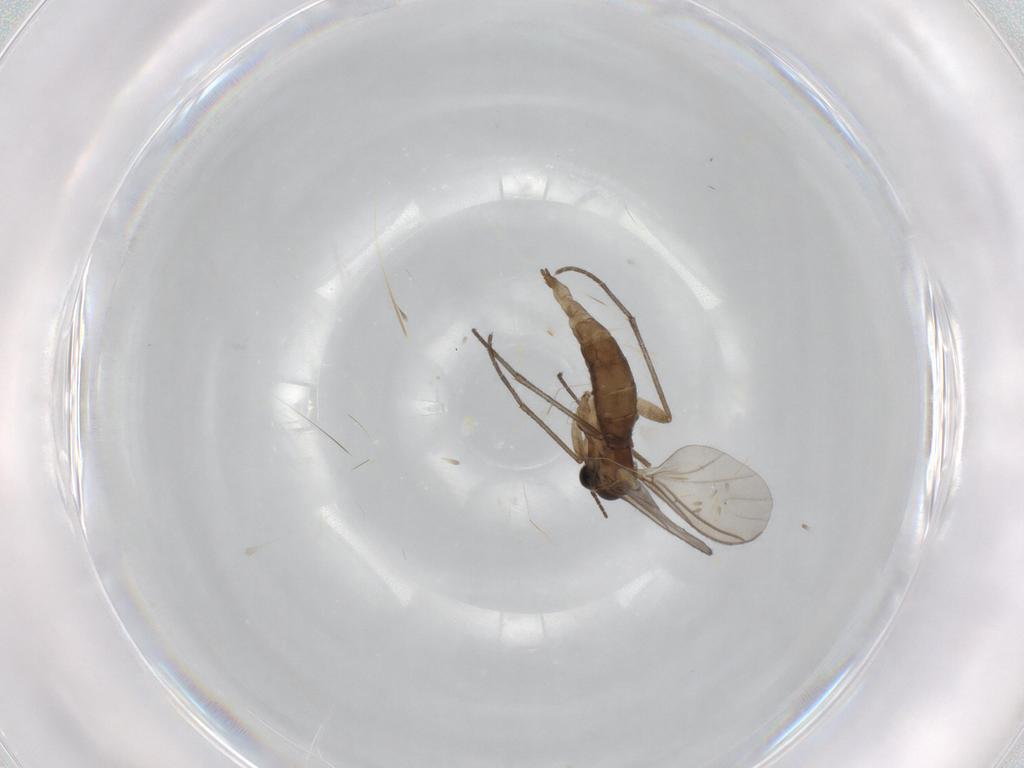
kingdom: Animalia
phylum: Arthropoda
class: Insecta
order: Diptera
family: Sciaridae
